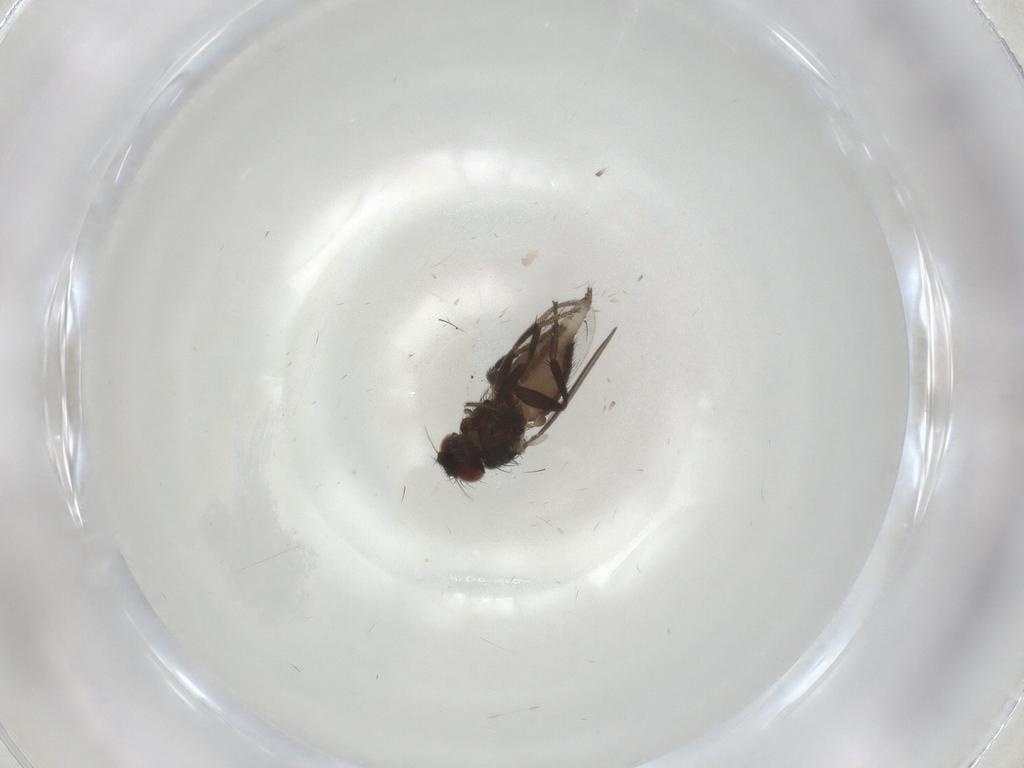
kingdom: Animalia
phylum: Arthropoda
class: Insecta
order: Diptera
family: Milichiidae
